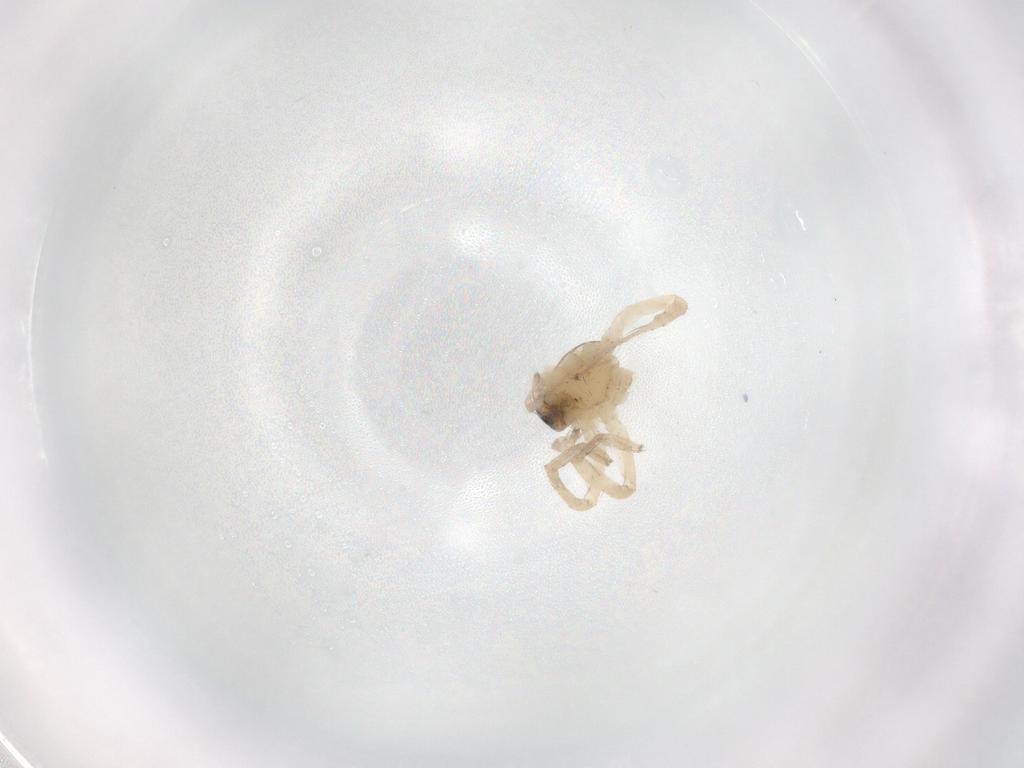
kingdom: Animalia
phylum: Arthropoda
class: Arachnida
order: Araneae
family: Anyphaenidae
